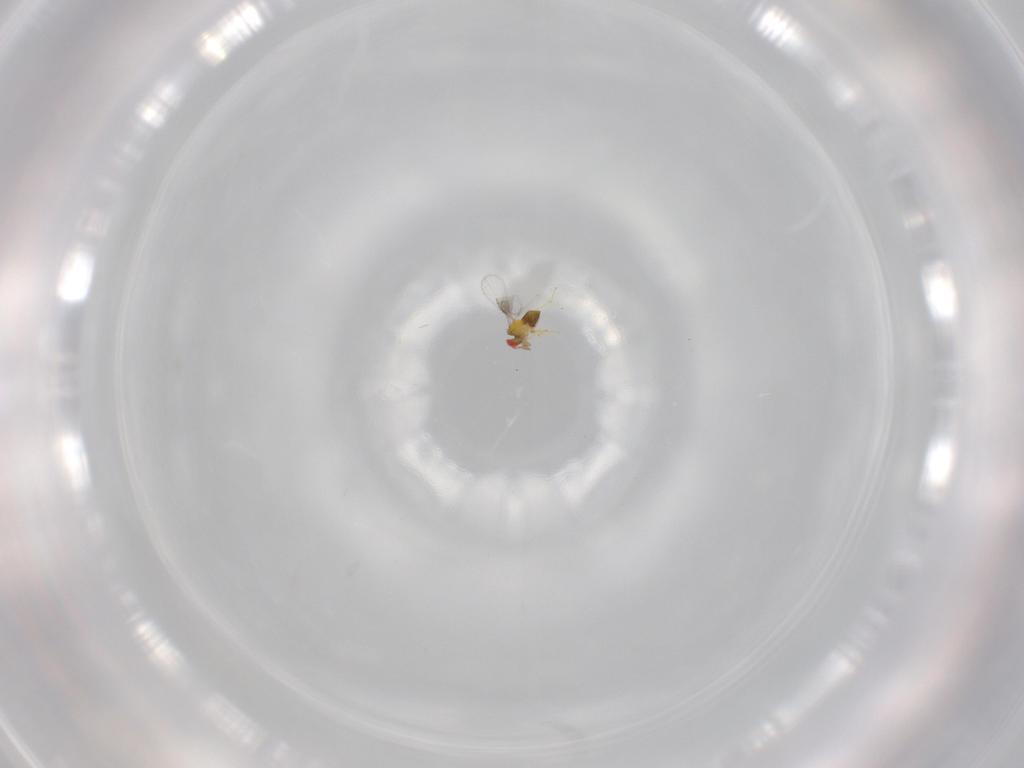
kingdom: Animalia
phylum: Arthropoda
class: Insecta
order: Hymenoptera
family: Trichogrammatidae
